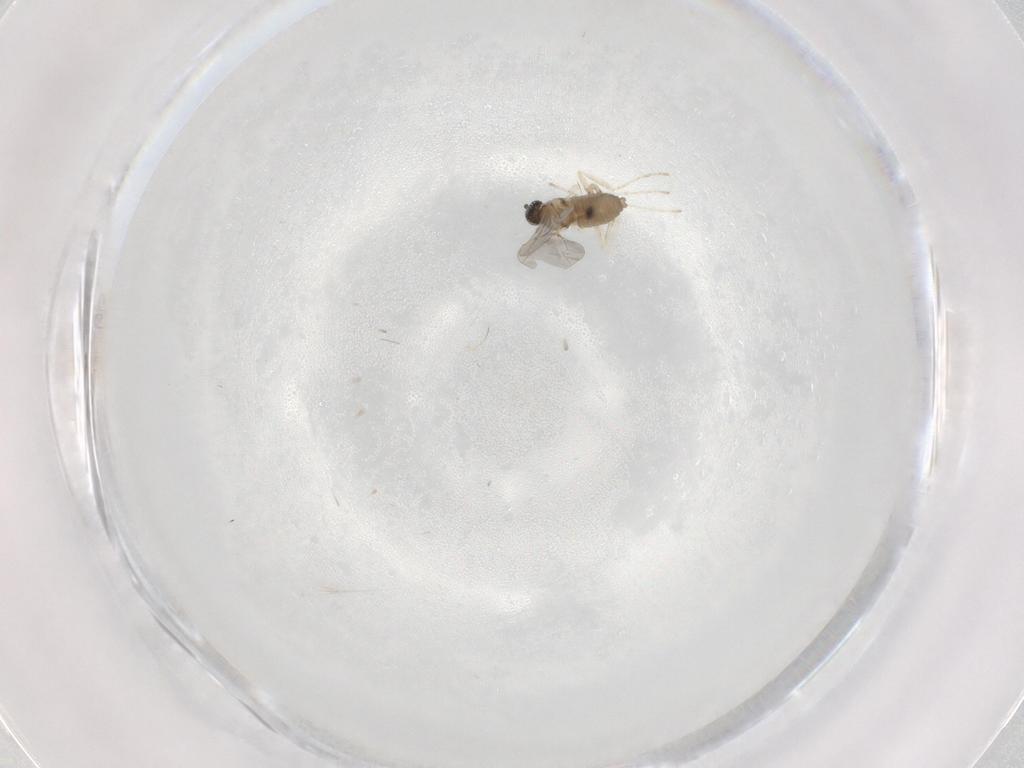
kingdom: Animalia
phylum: Arthropoda
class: Insecta
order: Diptera
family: Cecidomyiidae
